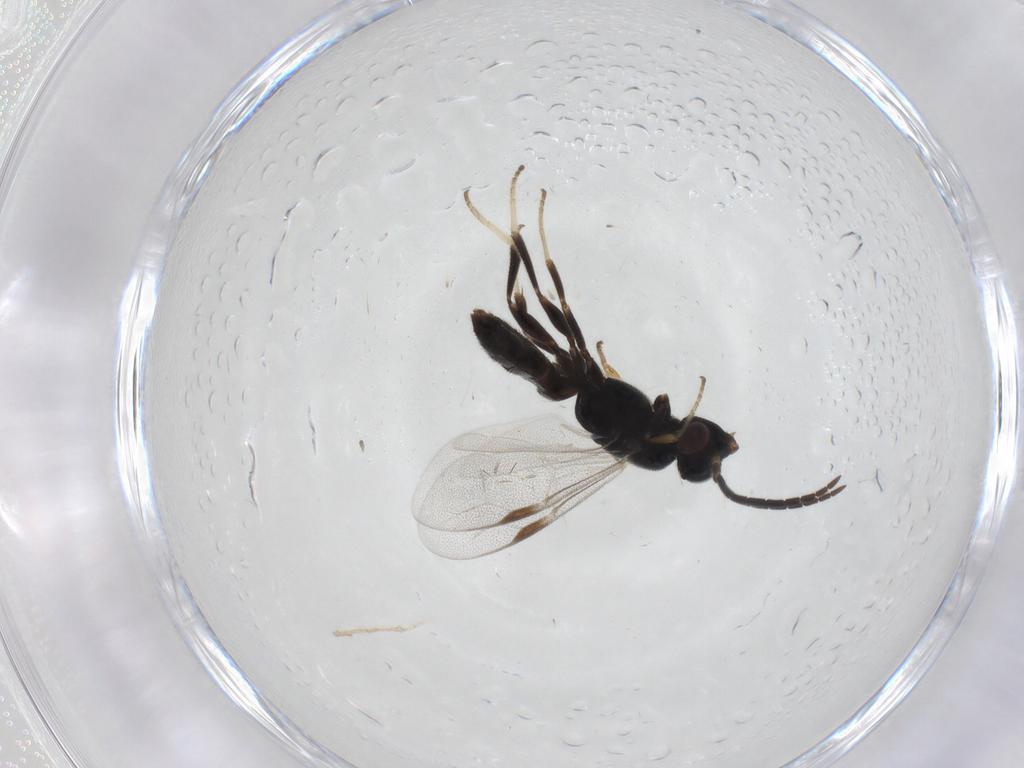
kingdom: Animalia
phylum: Arthropoda
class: Insecta
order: Hymenoptera
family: Dryinidae
